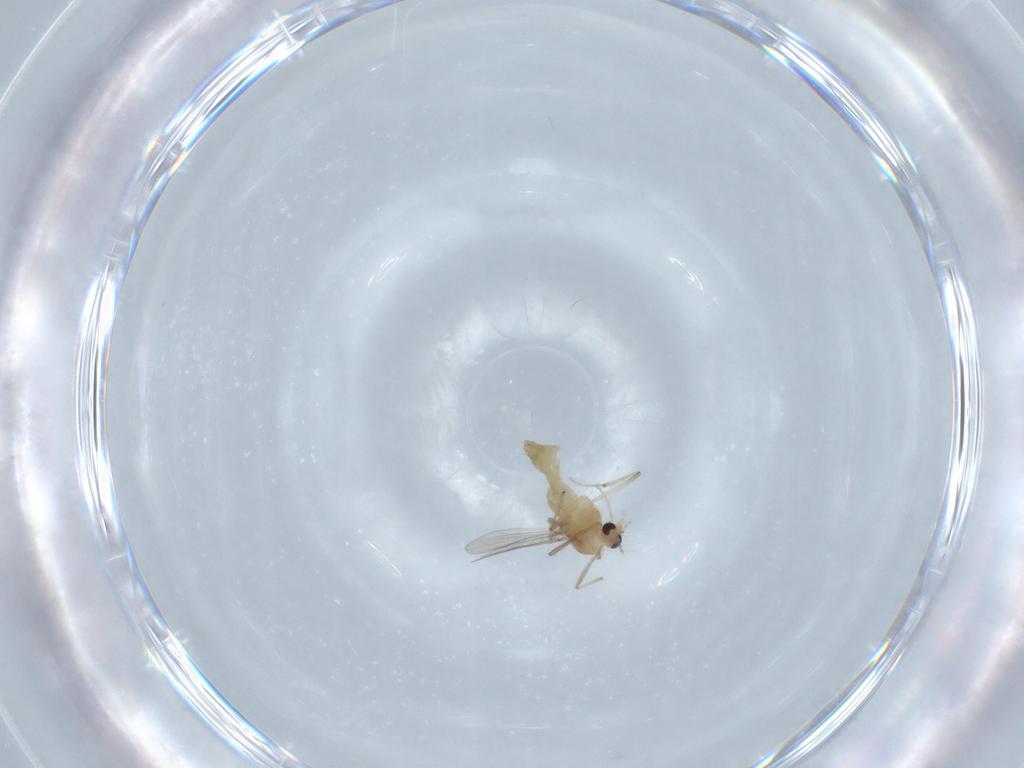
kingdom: Animalia
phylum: Arthropoda
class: Insecta
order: Diptera
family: Chironomidae
